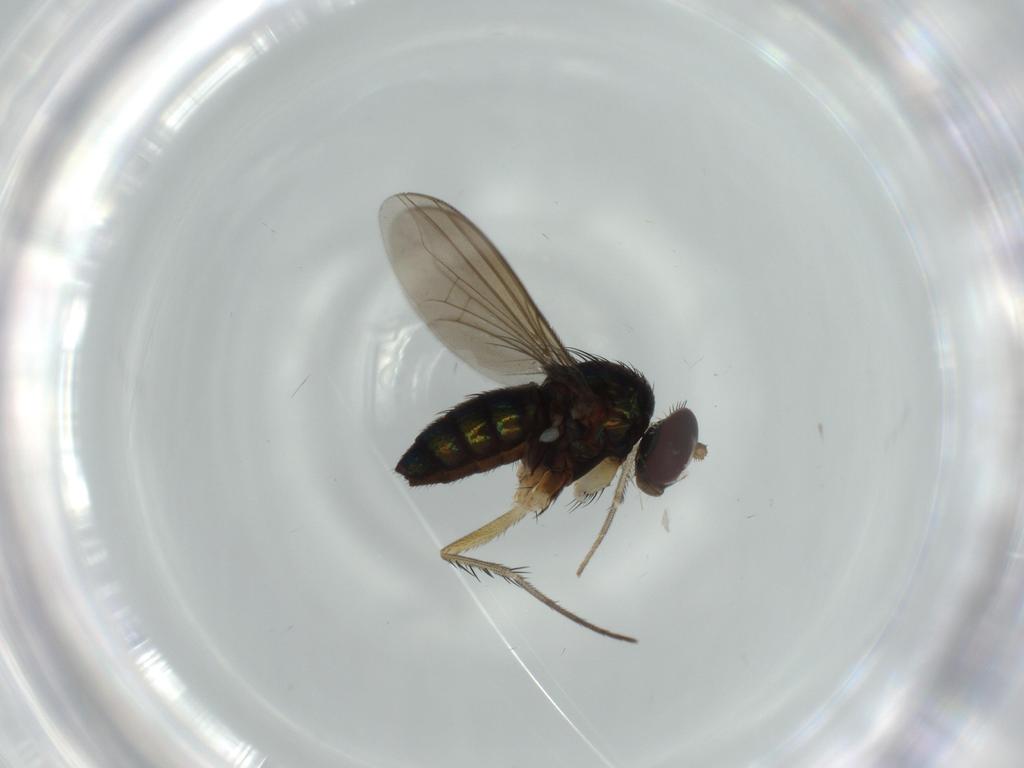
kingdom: Animalia
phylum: Arthropoda
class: Insecta
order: Diptera
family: Dolichopodidae
